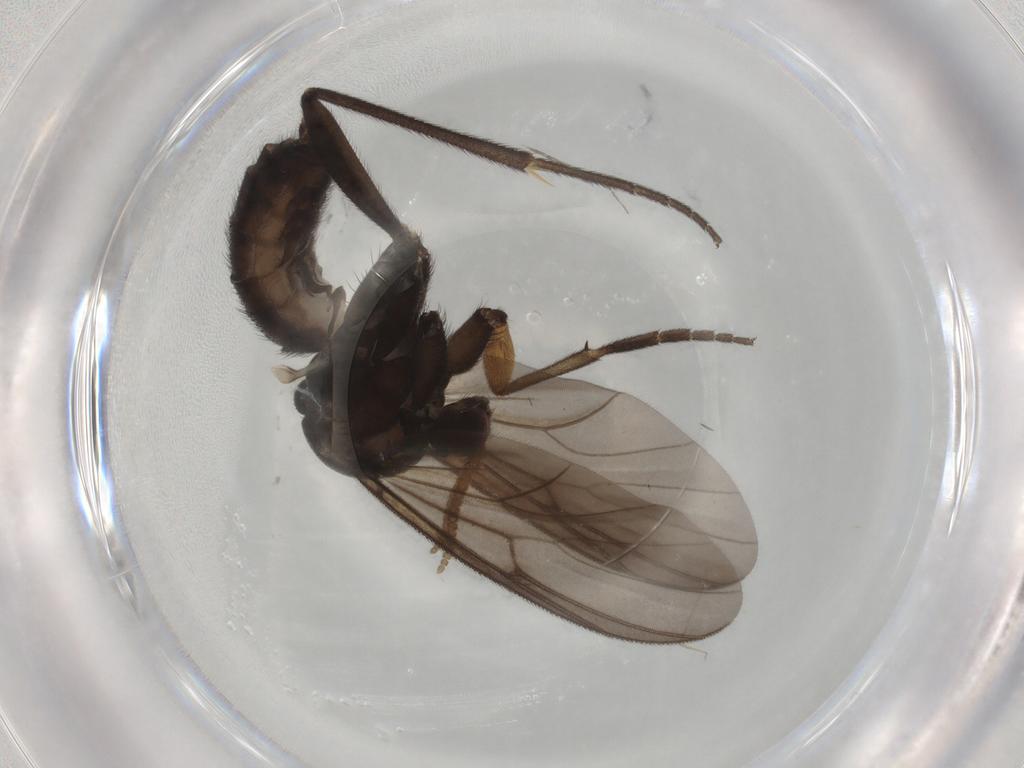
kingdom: Animalia
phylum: Arthropoda
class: Insecta
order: Diptera
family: Mycetophilidae
